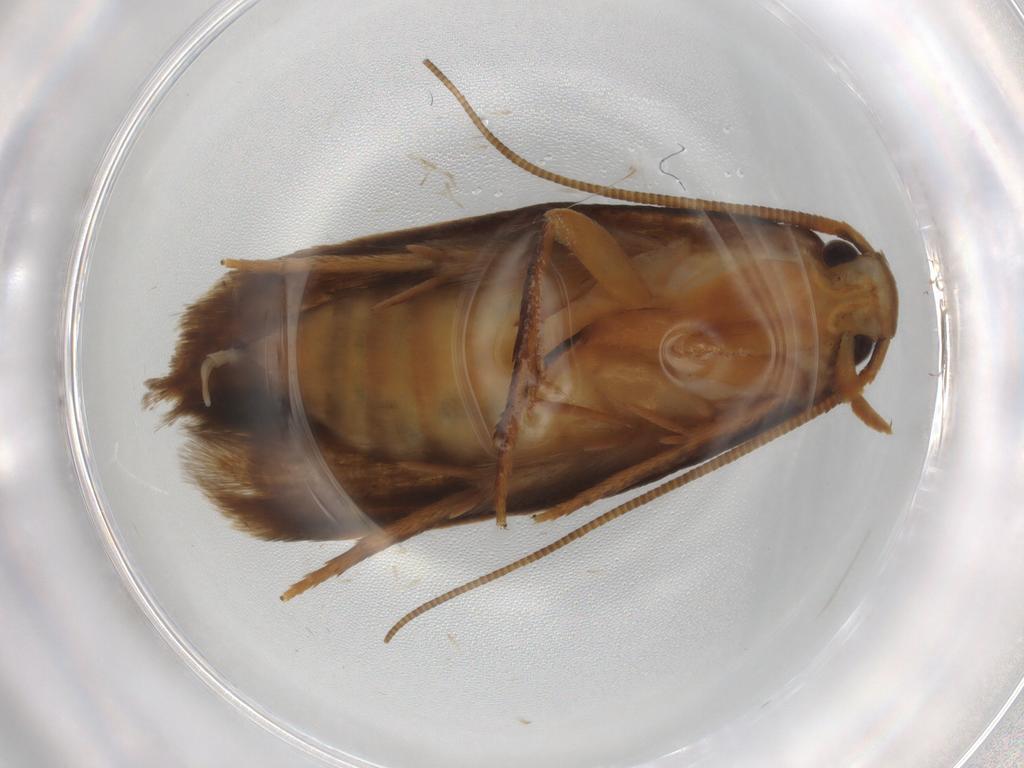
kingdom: Animalia
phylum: Arthropoda
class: Insecta
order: Lepidoptera
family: Tineidae
